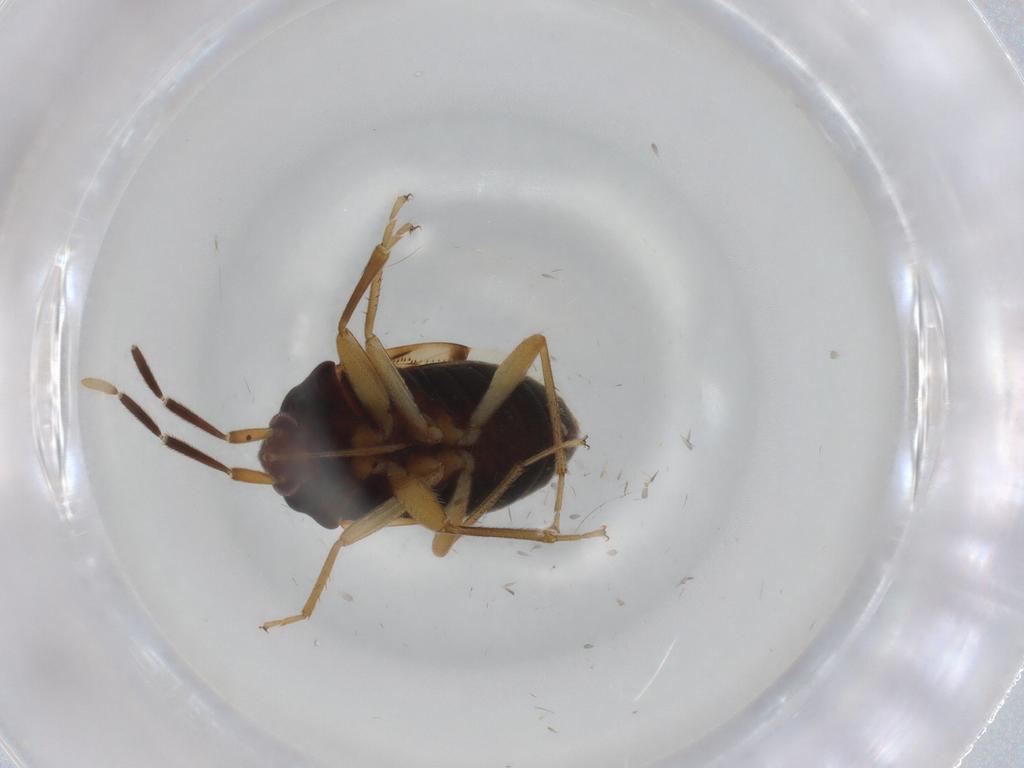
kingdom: Animalia
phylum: Arthropoda
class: Insecta
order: Hemiptera
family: Rhyparochromidae
